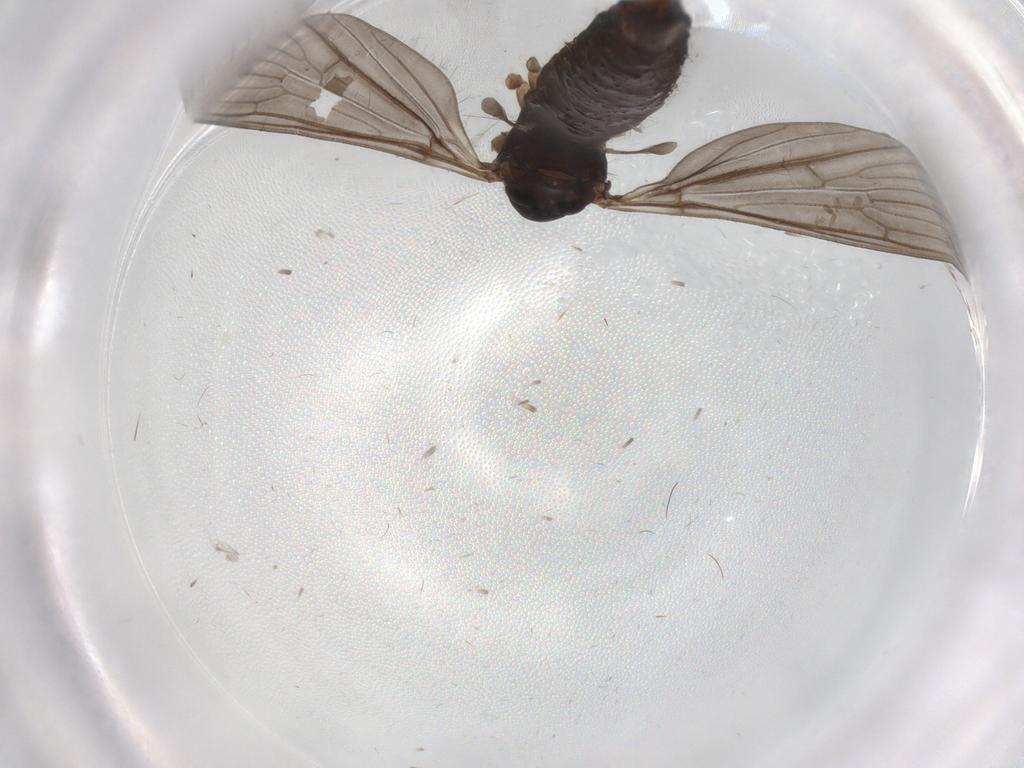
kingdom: Animalia
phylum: Arthropoda
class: Insecta
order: Diptera
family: Limoniidae
